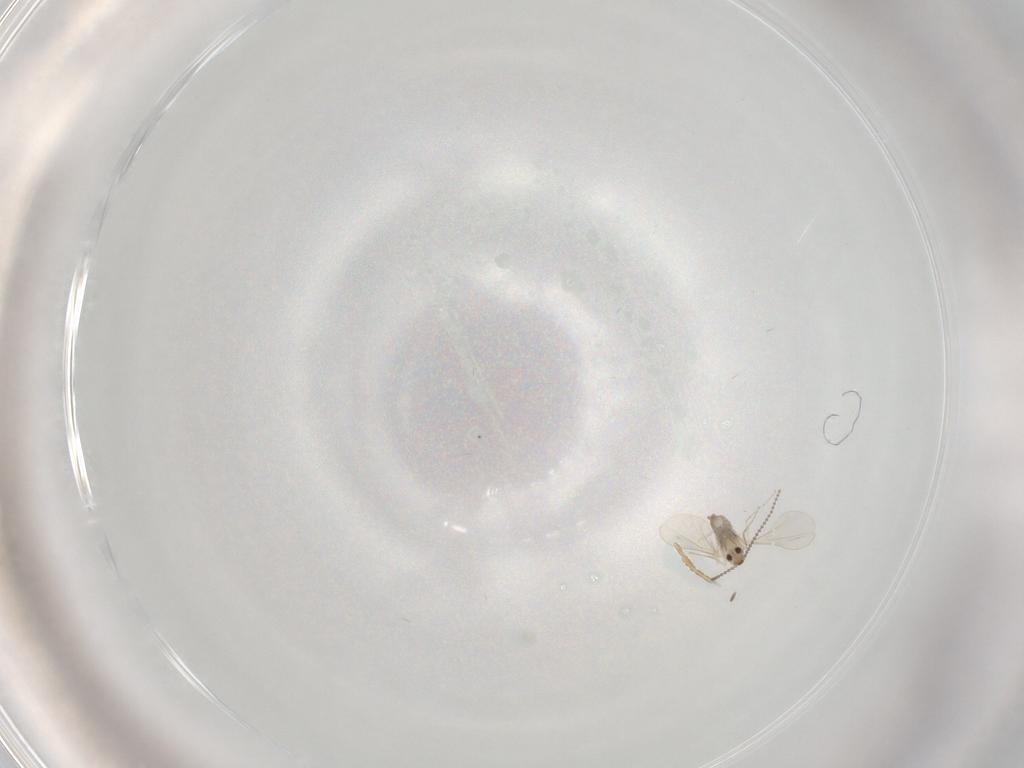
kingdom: Animalia
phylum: Arthropoda
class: Insecta
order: Diptera
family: Cecidomyiidae
